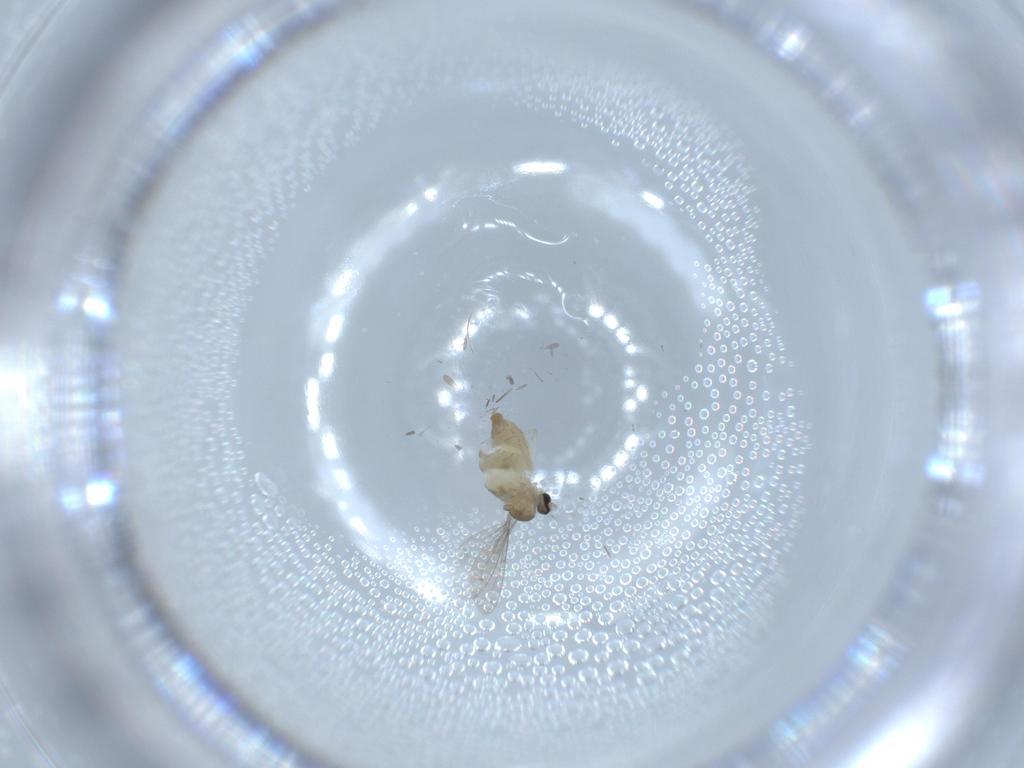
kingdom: Animalia
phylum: Arthropoda
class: Insecta
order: Diptera
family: Cecidomyiidae
